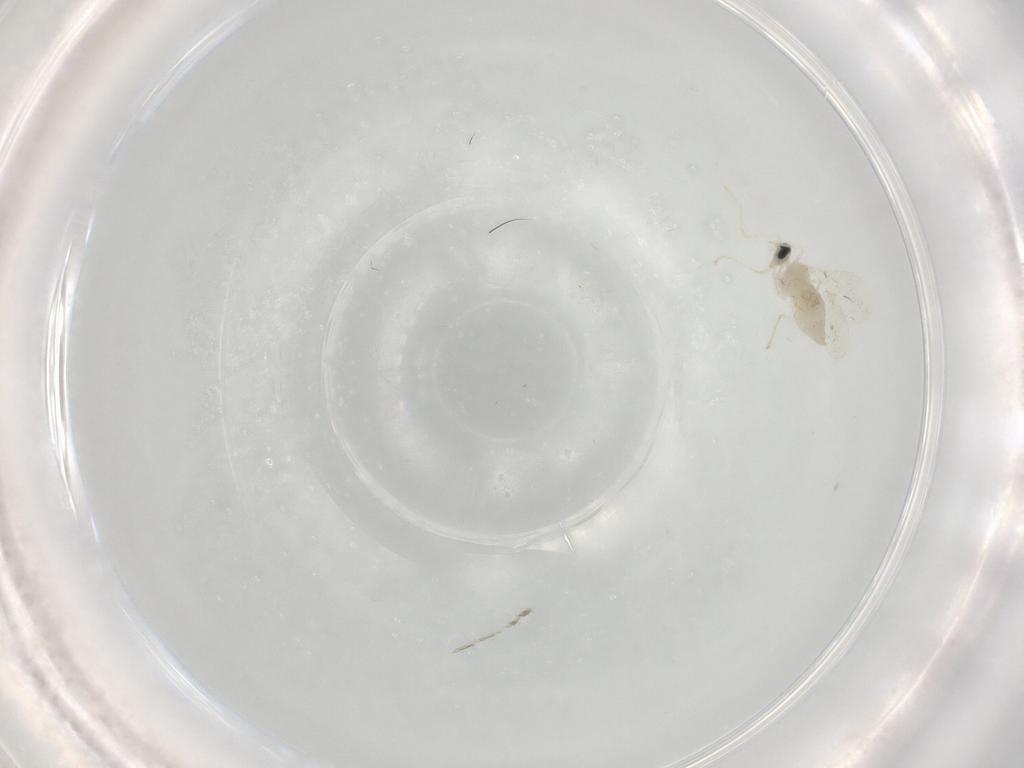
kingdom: Animalia
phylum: Arthropoda
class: Insecta
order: Diptera
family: Cecidomyiidae
